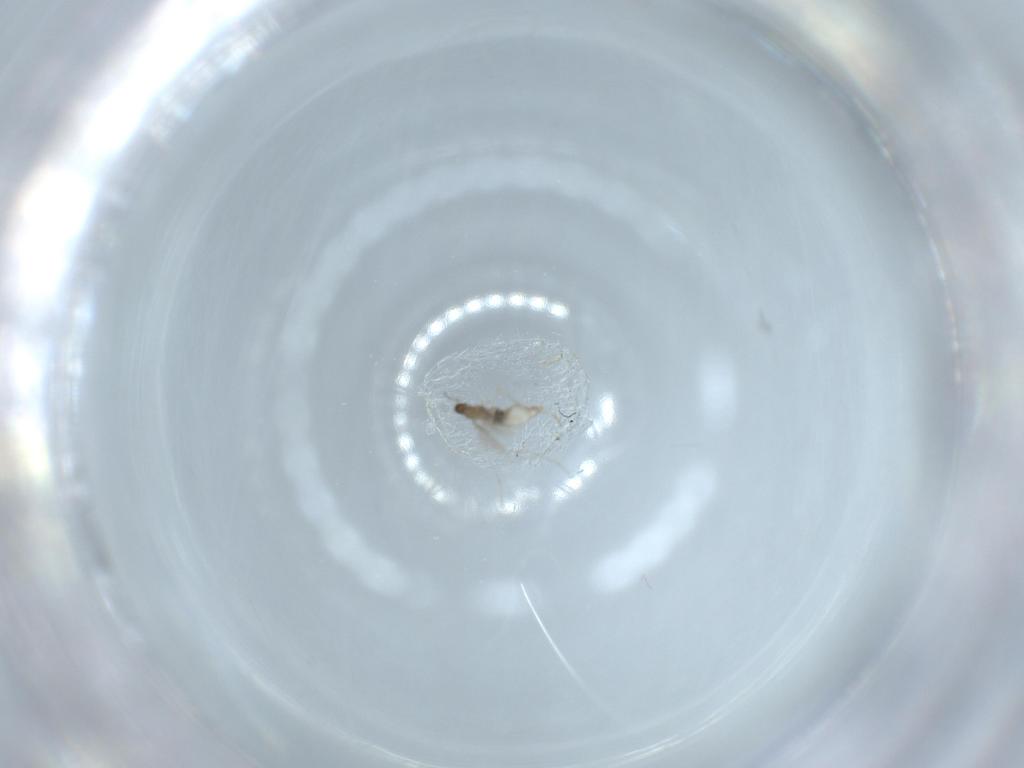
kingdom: Animalia
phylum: Arthropoda
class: Insecta
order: Diptera
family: Sciaridae
